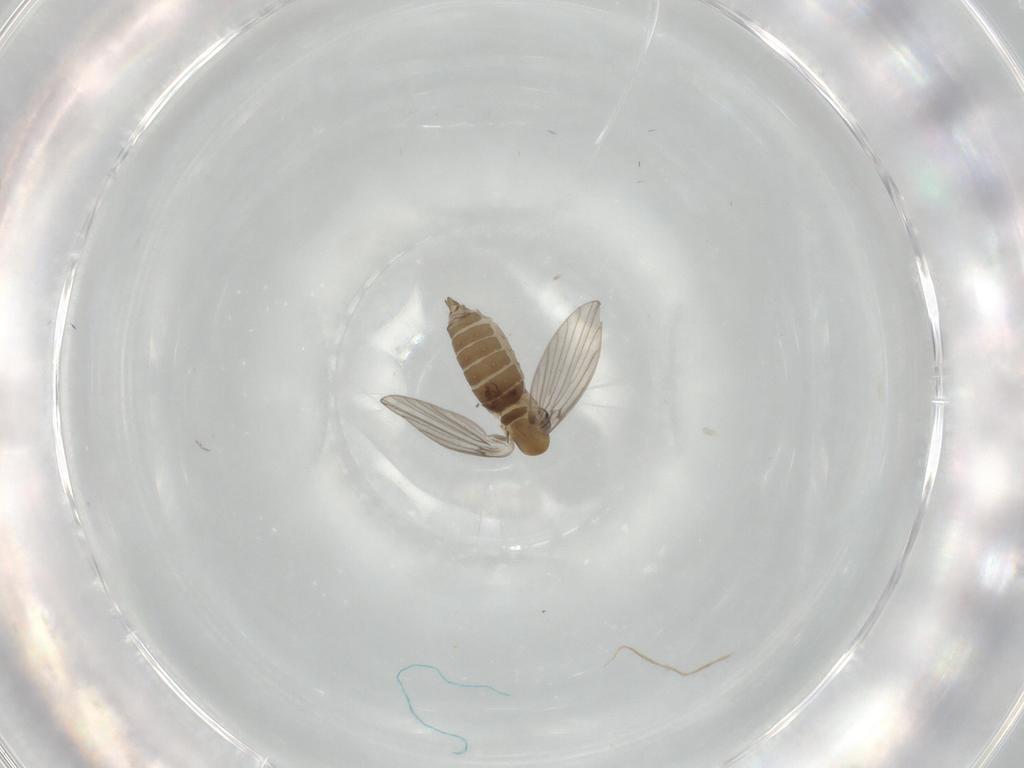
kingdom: Animalia
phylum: Arthropoda
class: Insecta
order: Diptera
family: Psychodidae
